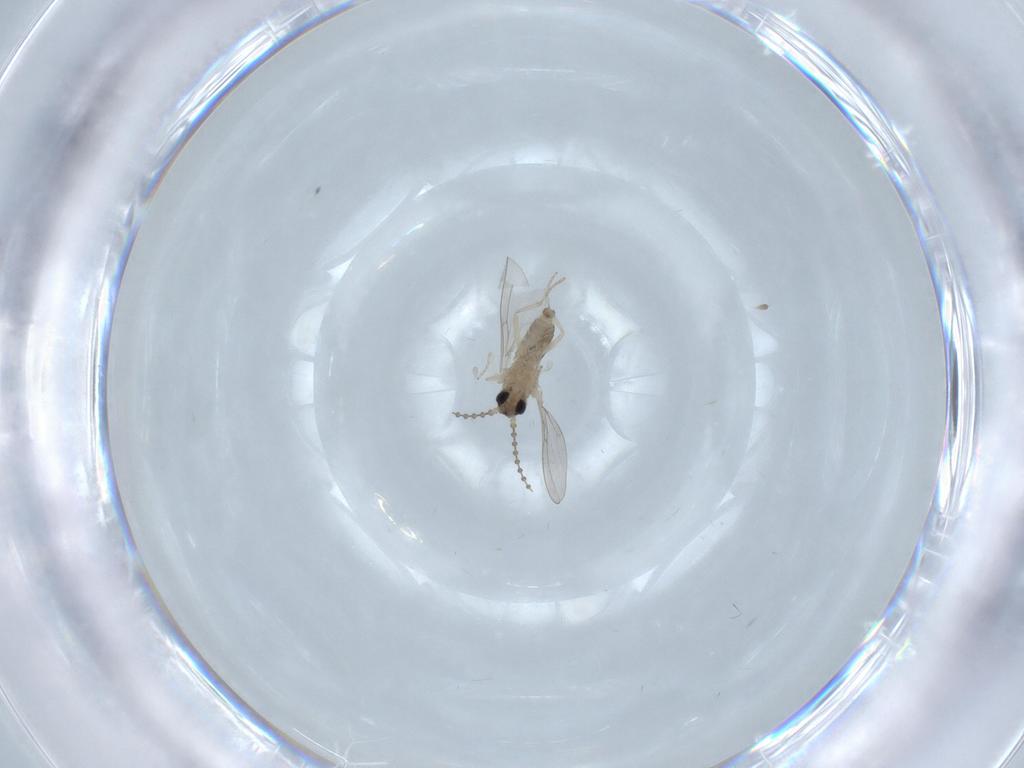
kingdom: Animalia
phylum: Arthropoda
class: Insecta
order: Diptera
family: Cecidomyiidae
